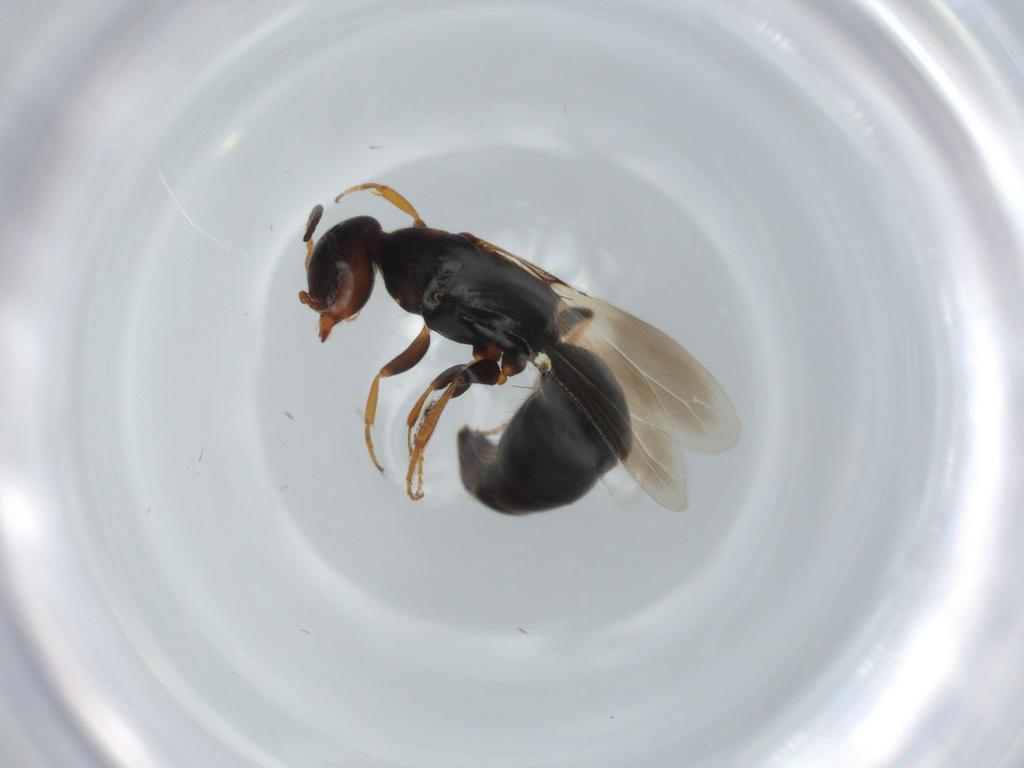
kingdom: Animalia
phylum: Arthropoda
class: Insecta
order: Hymenoptera
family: Bethylidae
